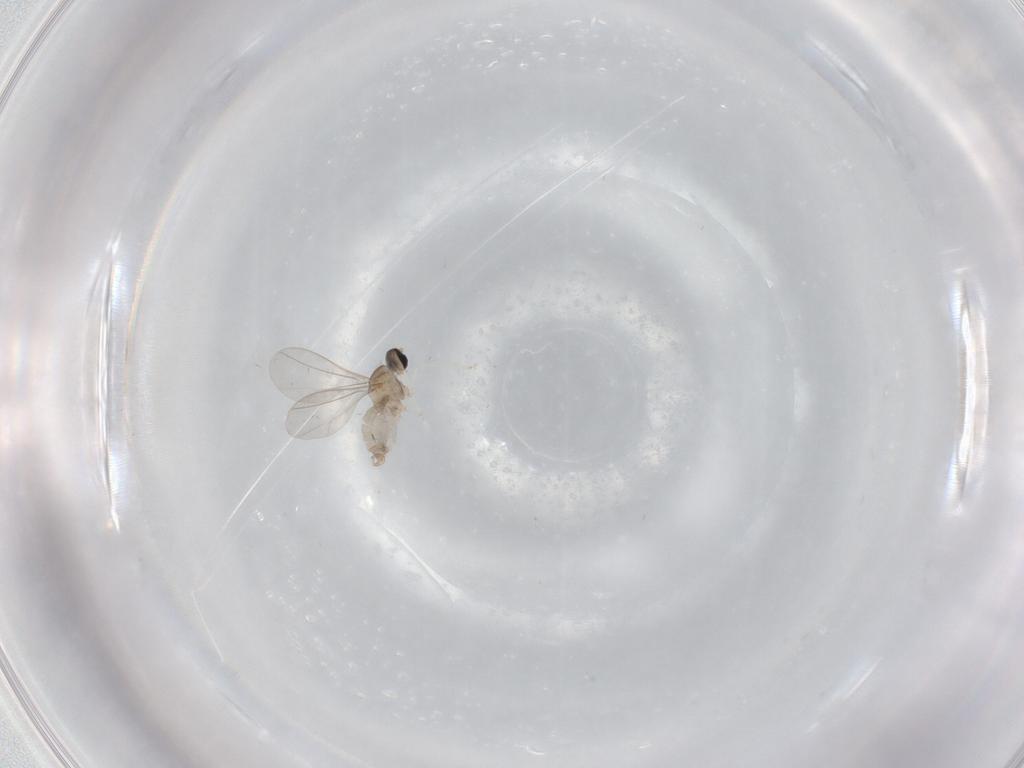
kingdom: Animalia
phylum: Arthropoda
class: Insecta
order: Diptera
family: Cecidomyiidae
